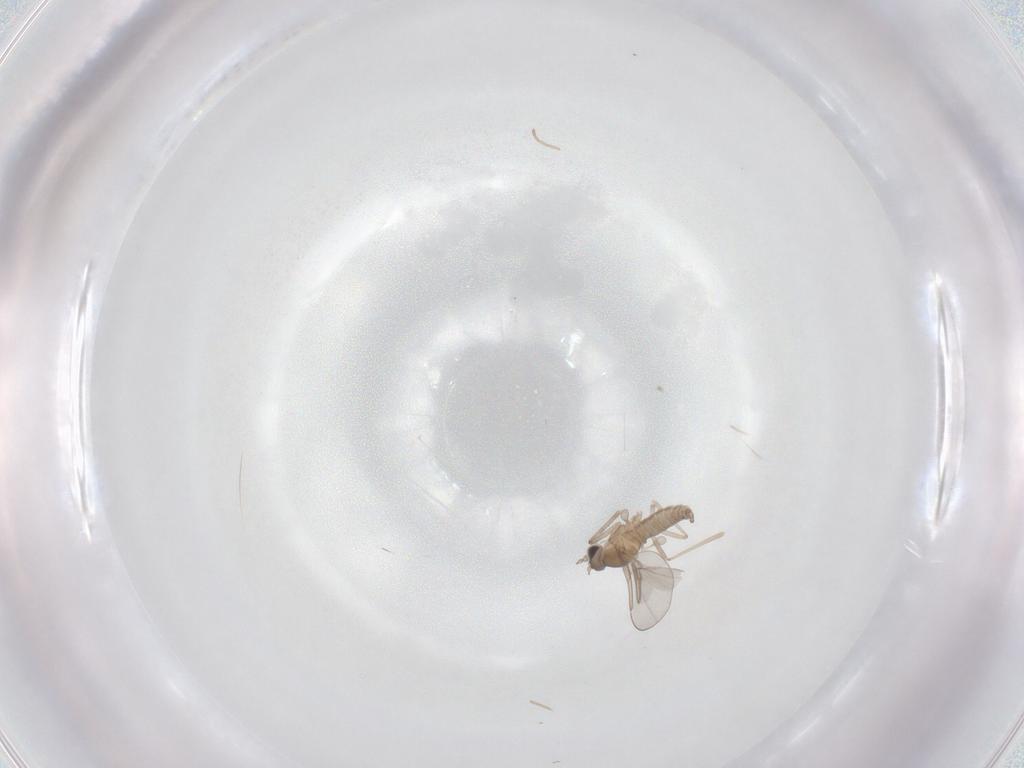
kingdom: Animalia
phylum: Arthropoda
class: Insecta
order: Diptera
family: Cecidomyiidae
